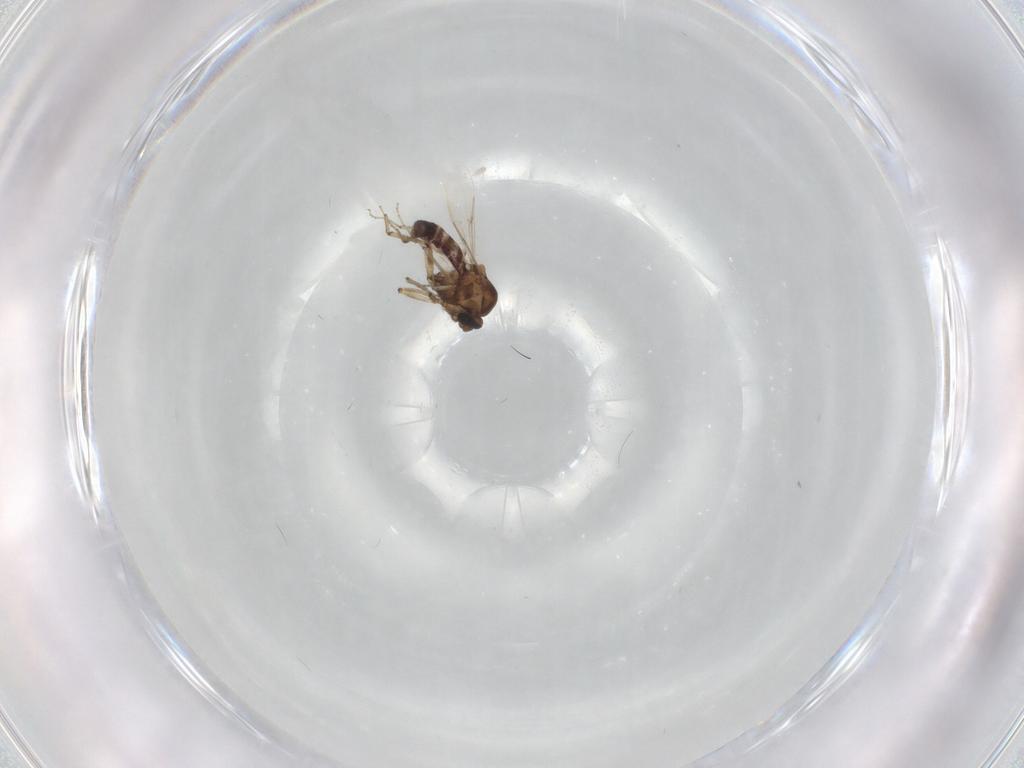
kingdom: Animalia
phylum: Arthropoda
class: Insecta
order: Diptera
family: Ceratopogonidae
